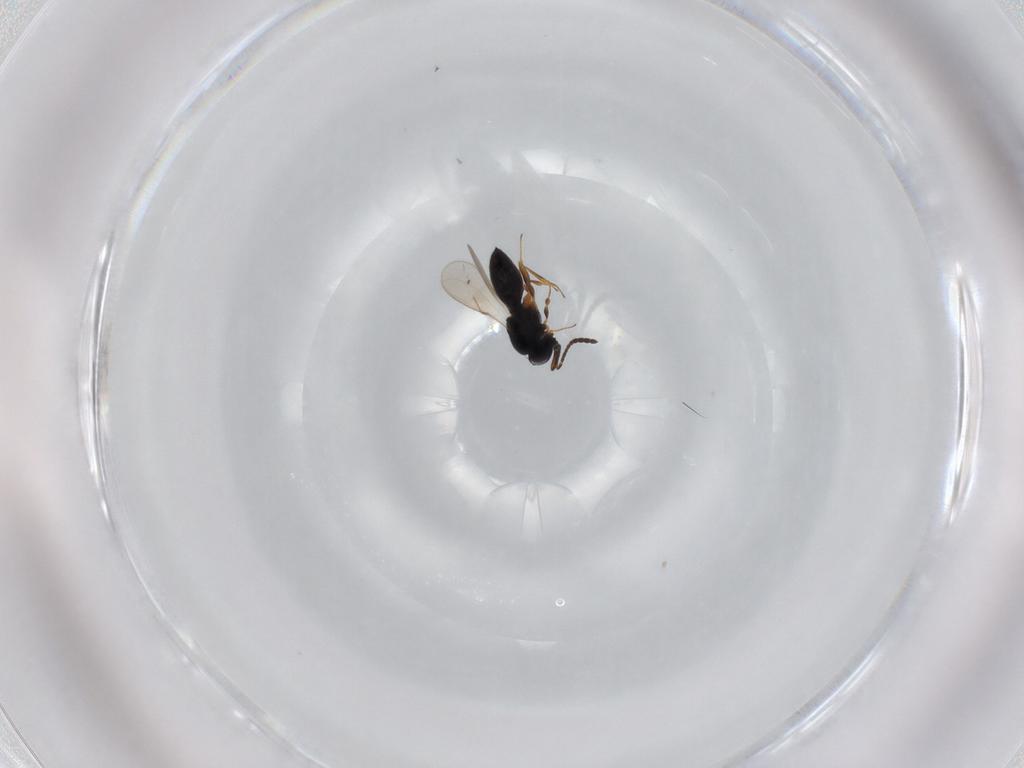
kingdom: Animalia
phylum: Arthropoda
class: Insecta
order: Hymenoptera
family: Scelionidae
